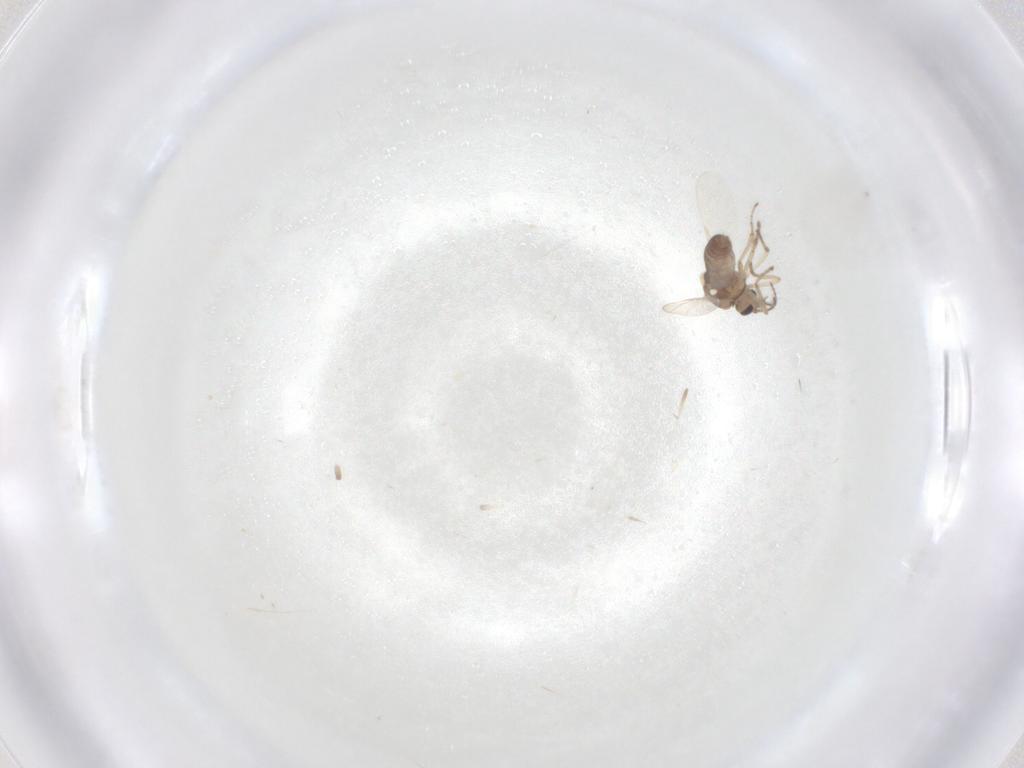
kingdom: Animalia
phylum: Arthropoda
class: Insecta
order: Diptera
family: Ceratopogonidae
